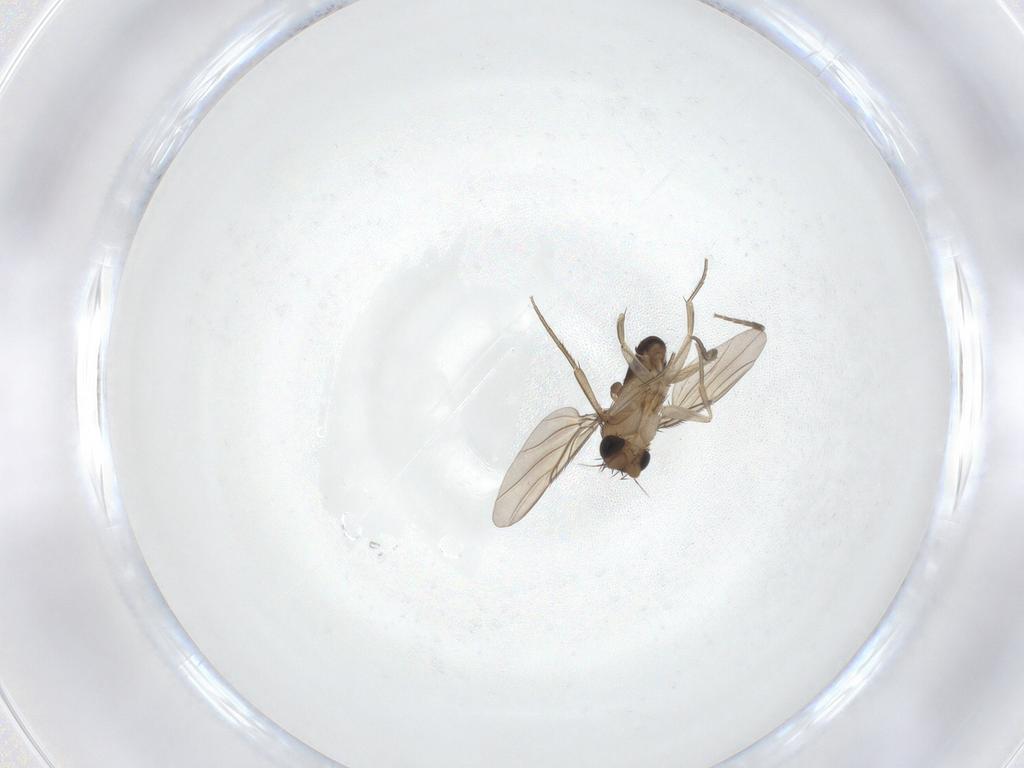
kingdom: Animalia
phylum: Arthropoda
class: Insecta
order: Diptera
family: Phoridae
